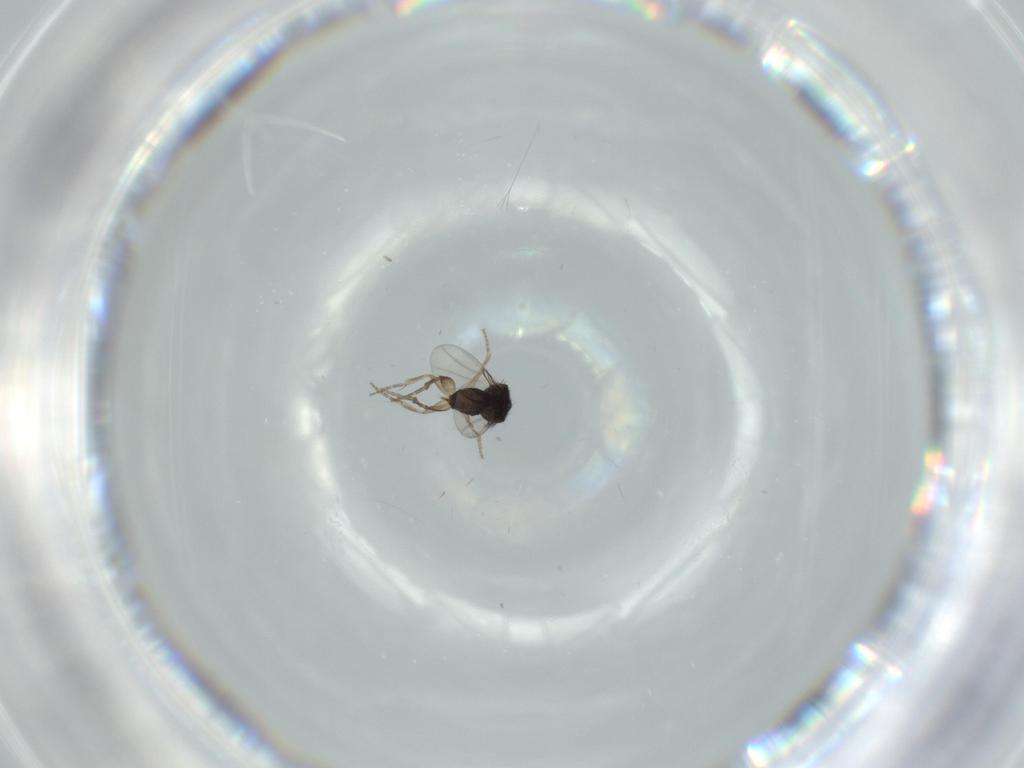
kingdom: Animalia
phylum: Arthropoda
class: Insecta
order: Diptera
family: Phoridae
